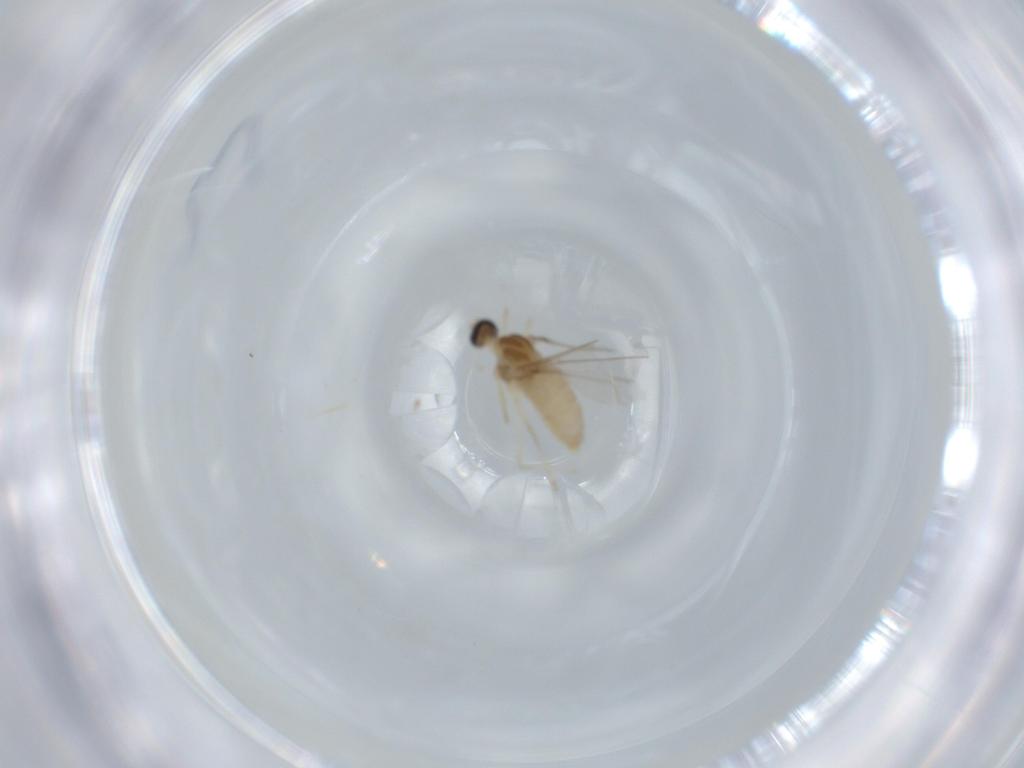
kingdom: Animalia
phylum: Arthropoda
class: Insecta
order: Diptera
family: Cecidomyiidae
